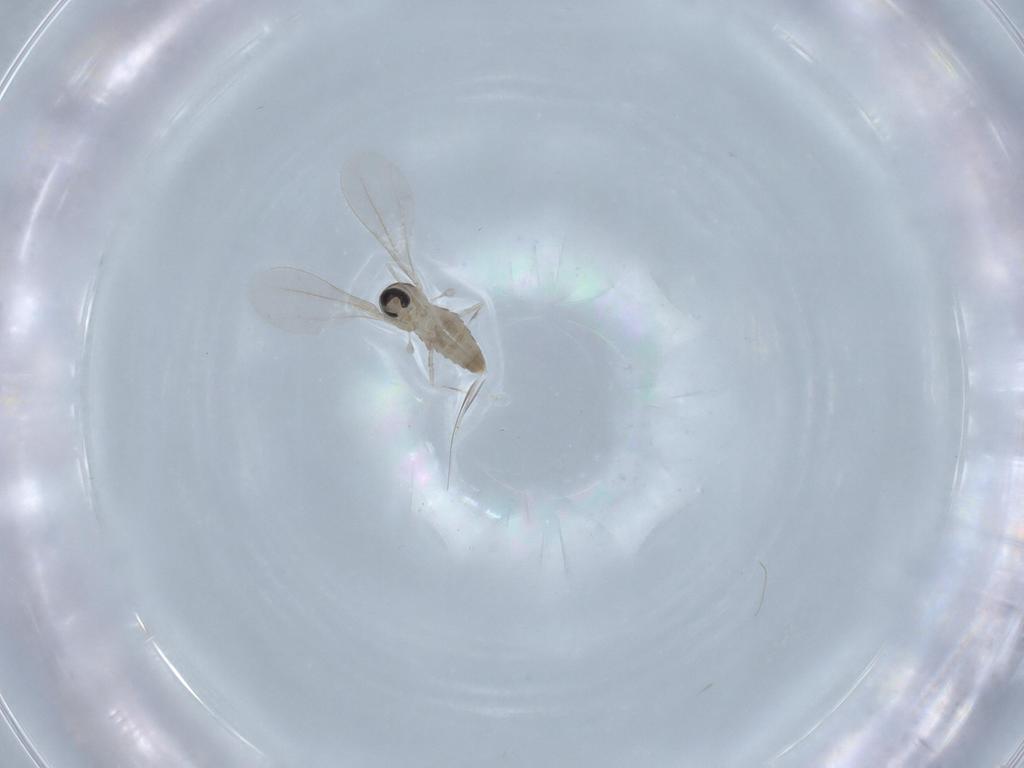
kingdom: Animalia
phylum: Arthropoda
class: Insecta
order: Diptera
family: Chironomidae
